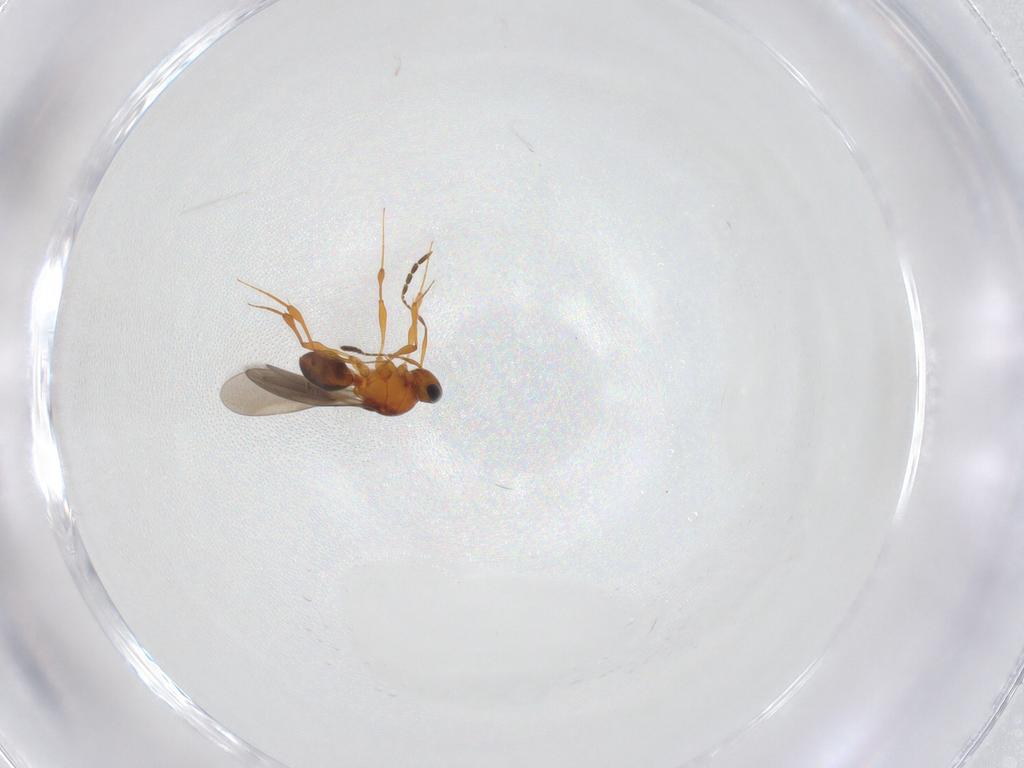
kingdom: Animalia
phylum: Arthropoda
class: Insecta
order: Hymenoptera
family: Platygastridae
